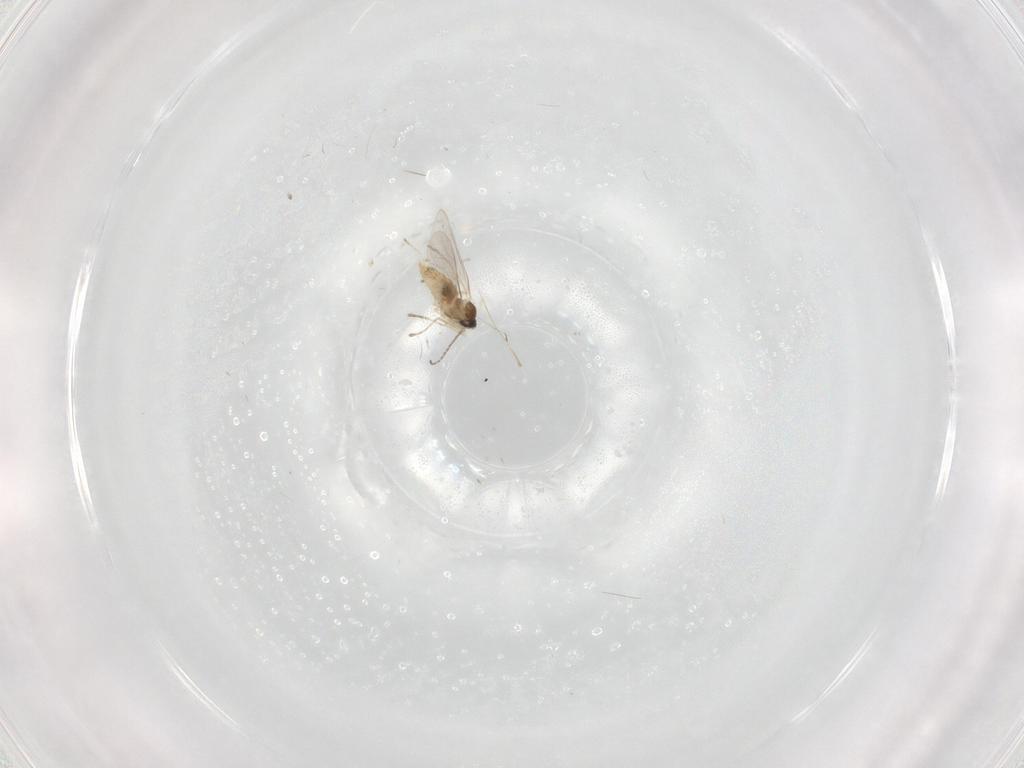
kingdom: Animalia
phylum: Arthropoda
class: Insecta
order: Diptera
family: Cecidomyiidae
